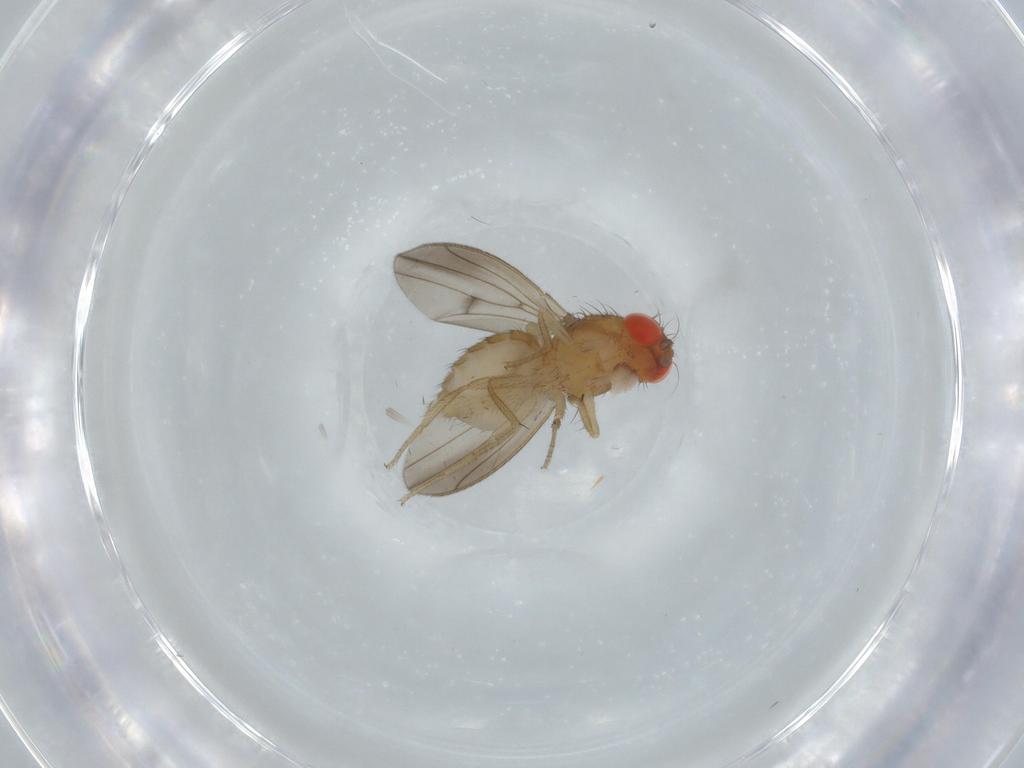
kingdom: Animalia
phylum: Arthropoda
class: Insecta
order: Diptera
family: Drosophilidae
